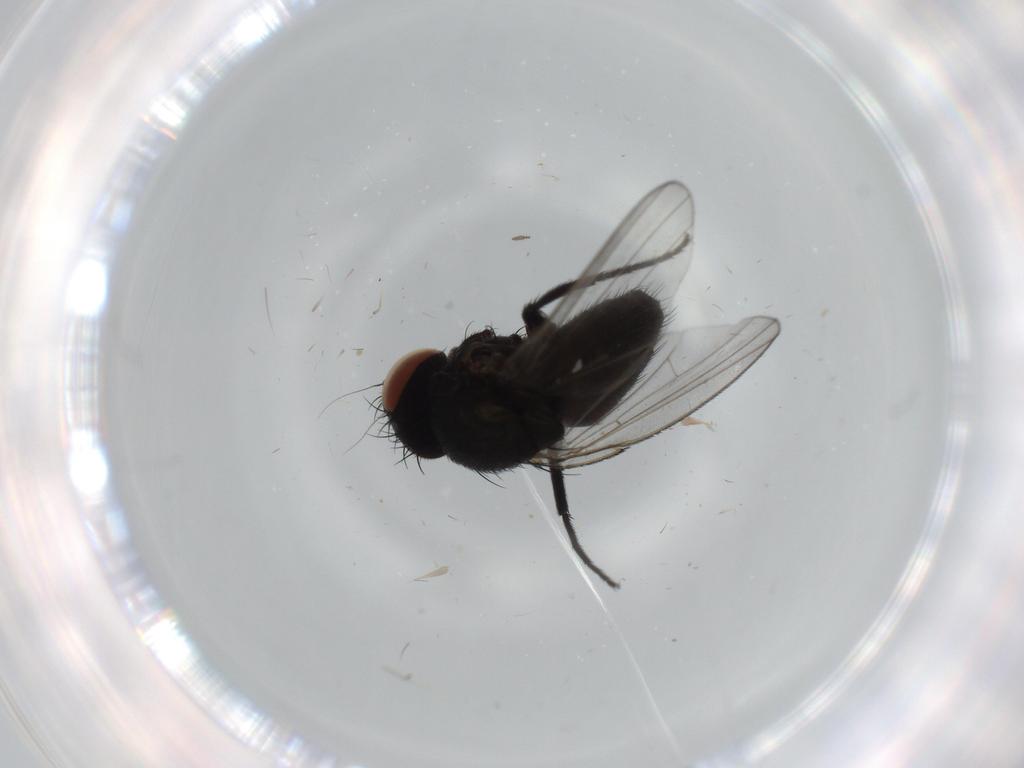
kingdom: Animalia
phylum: Arthropoda
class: Insecta
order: Diptera
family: Milichiidae
